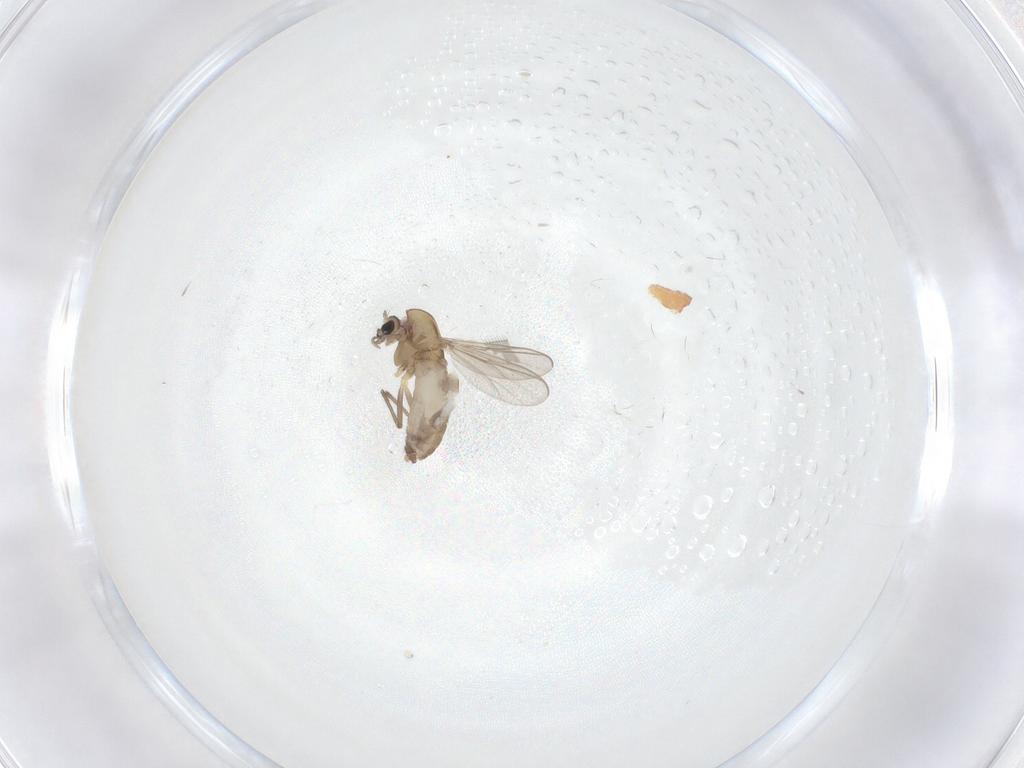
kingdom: Animalia
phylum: Arthropoda
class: Insecta
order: Diptera
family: Chironomidae
